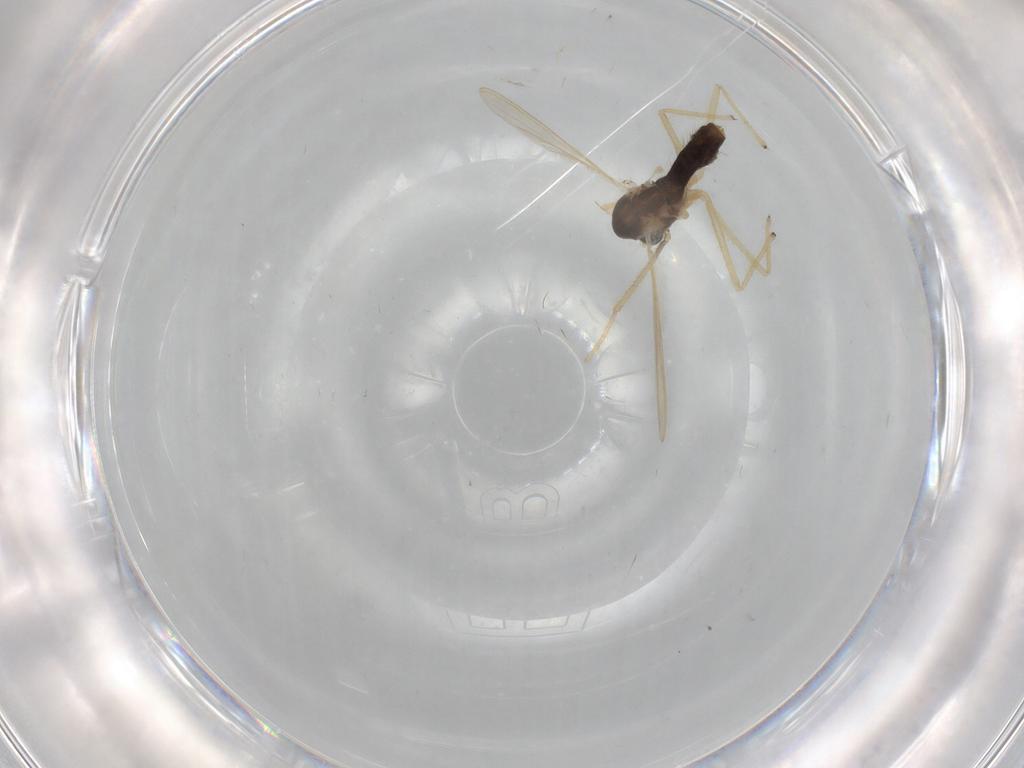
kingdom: Animalia
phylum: Arthropoda
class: Insecta
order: Diptera
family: Chironomidae
